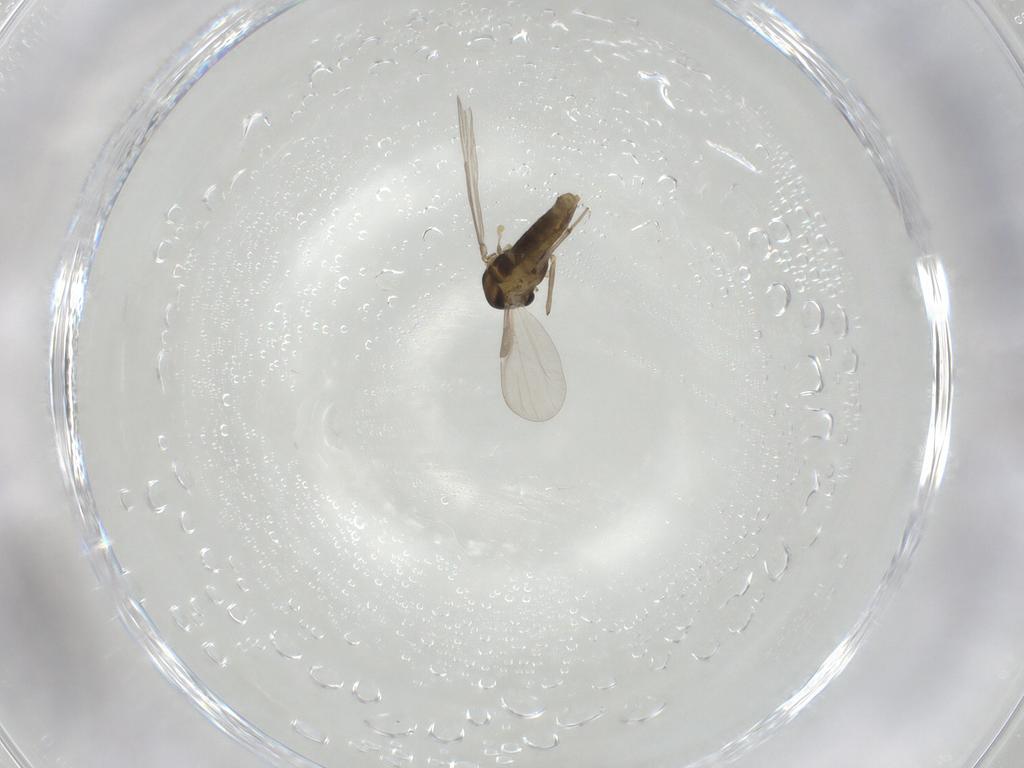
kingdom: Animalia
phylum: Arthropoda
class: Insecta
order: Diptera
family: Chironomidae
